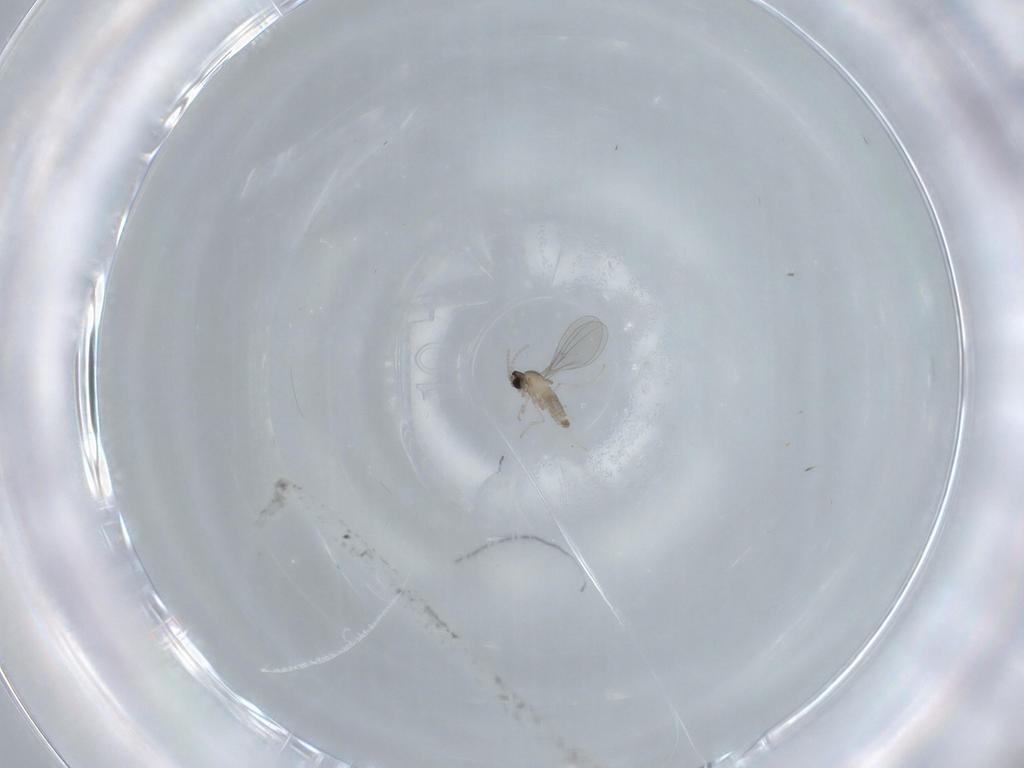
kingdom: Animalia
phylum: Arthropoda
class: Insecta
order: Diptera
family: Cecidomyiidae
